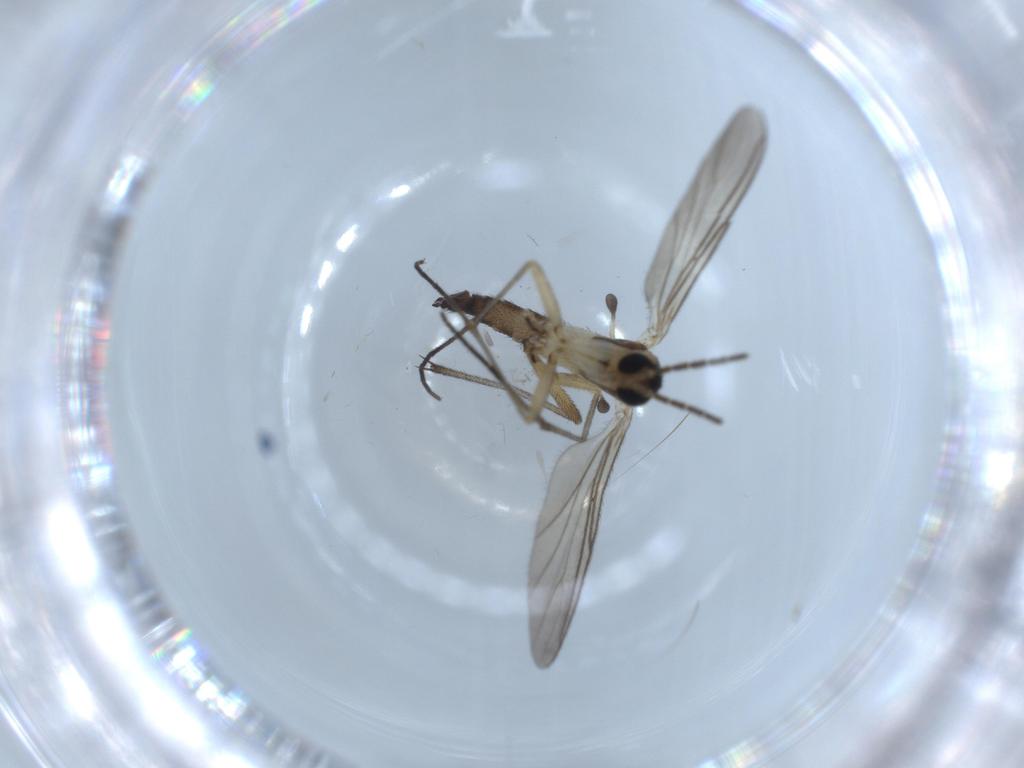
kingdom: Animalia
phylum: Arthropoda
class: Insecta
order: Diptera
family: Sciaridae
